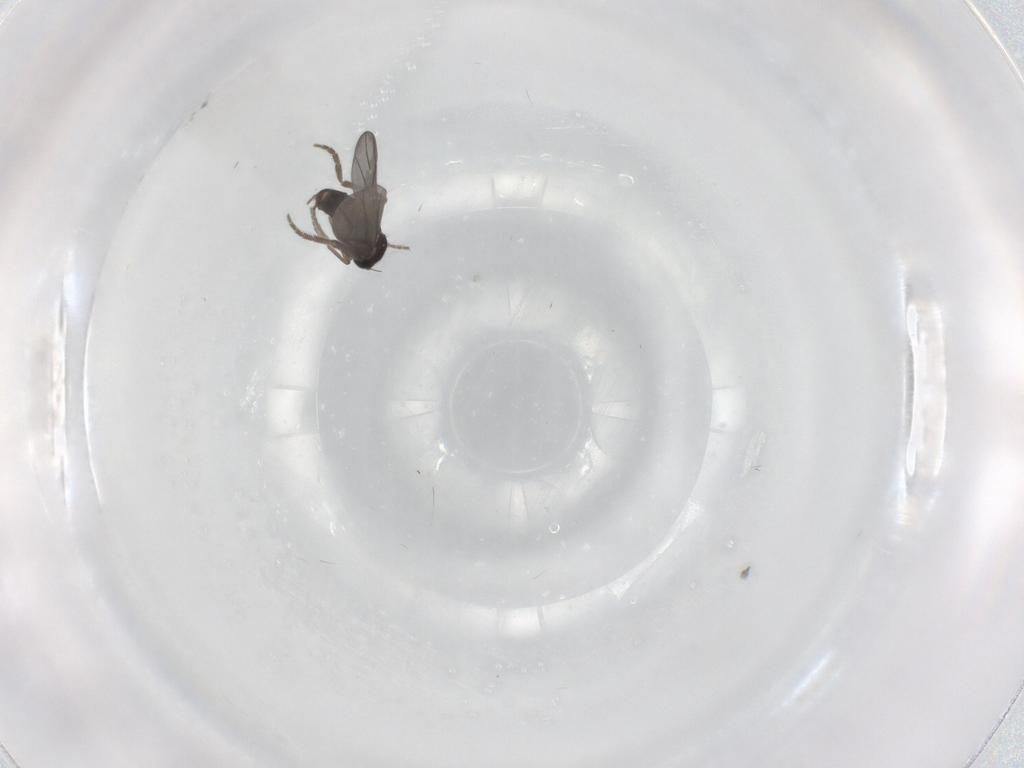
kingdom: Animalia
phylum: Arthropoda
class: Insecta
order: Diptera
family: Phoridae
